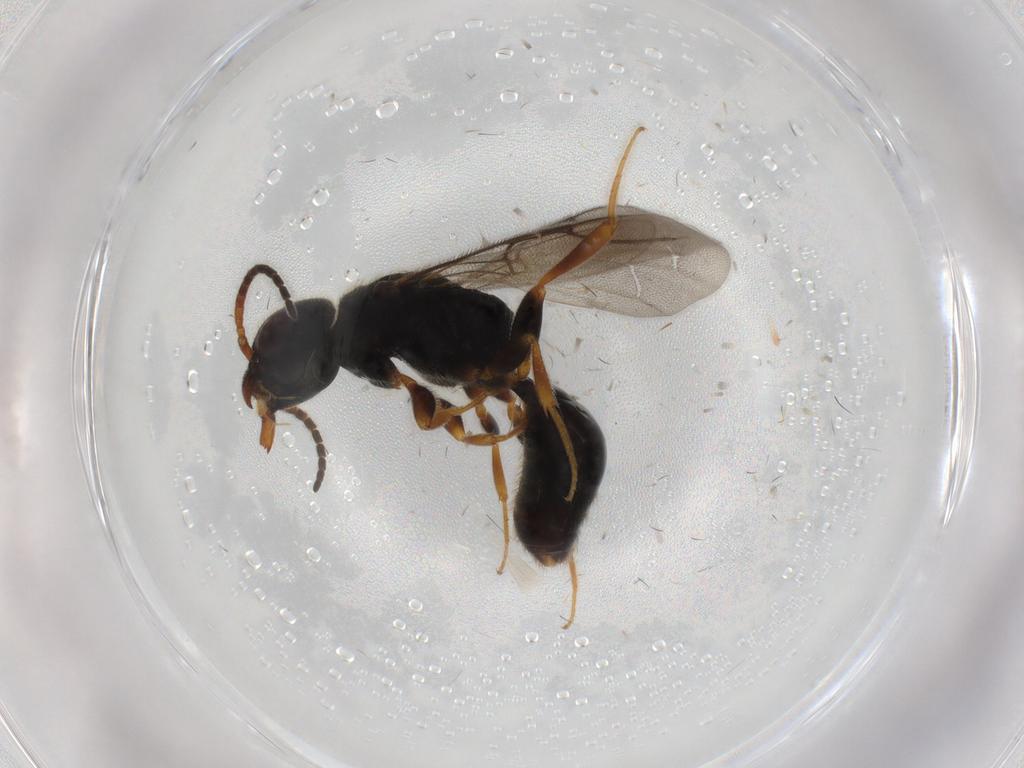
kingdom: Animalia
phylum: Arthropoda
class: Insecta
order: Hymenoptera
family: Bethylidae
